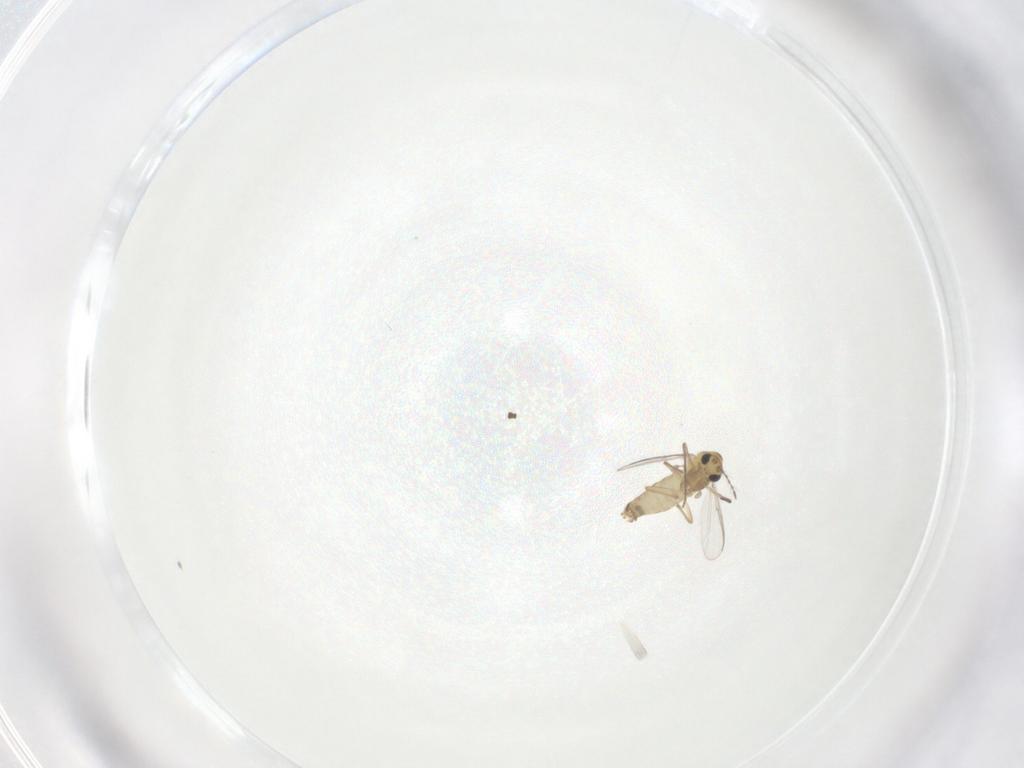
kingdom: Animalia
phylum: Arthropoda
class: Insecta
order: Diptera
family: Chironomidae
